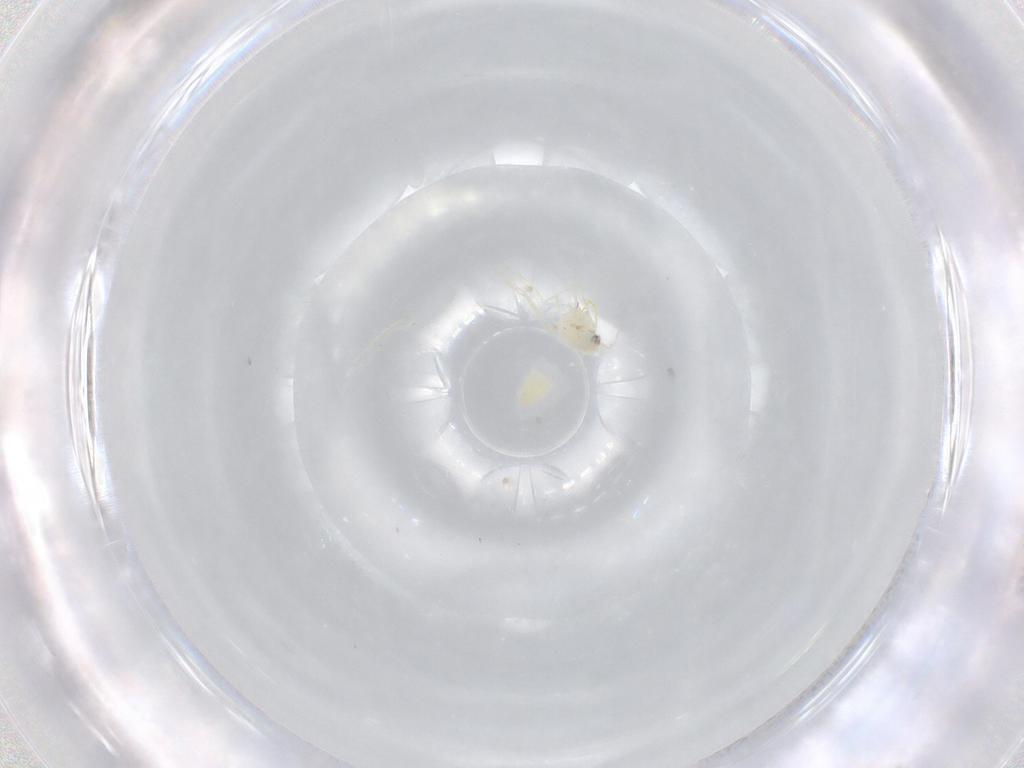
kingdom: Animalia
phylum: Arthropoda
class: Insecta
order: Hemiptera
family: Aleyrodidae
